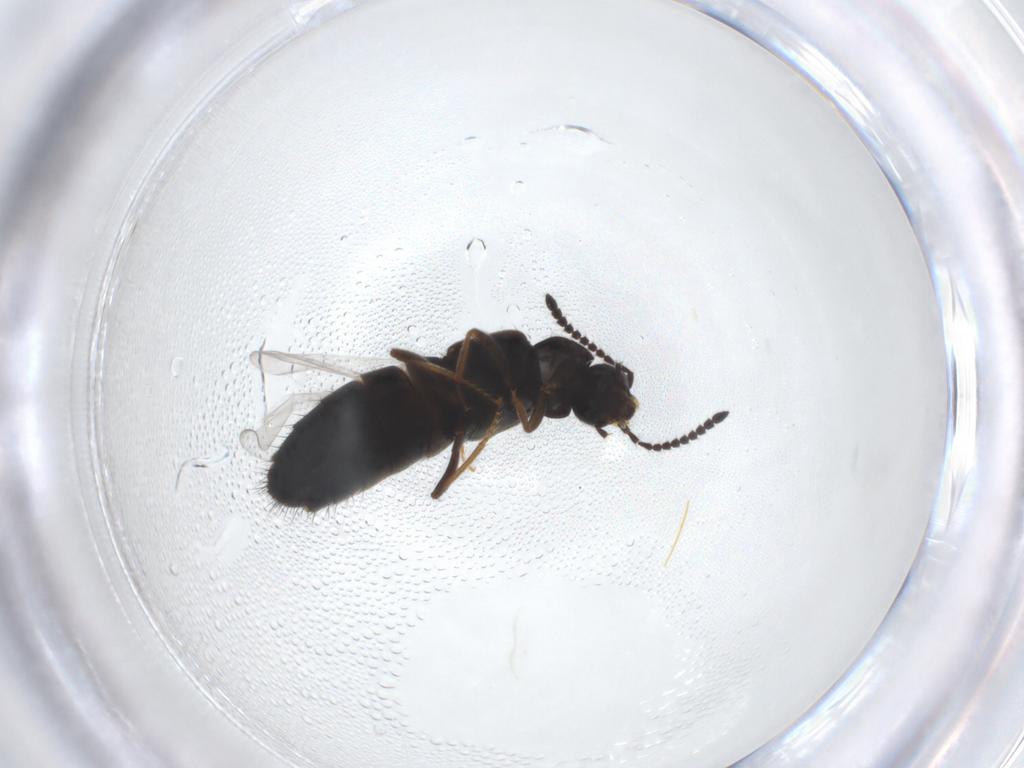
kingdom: Animalia
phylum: Arthropoda
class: Insecta
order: Coleoptera
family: Staphylinidae
